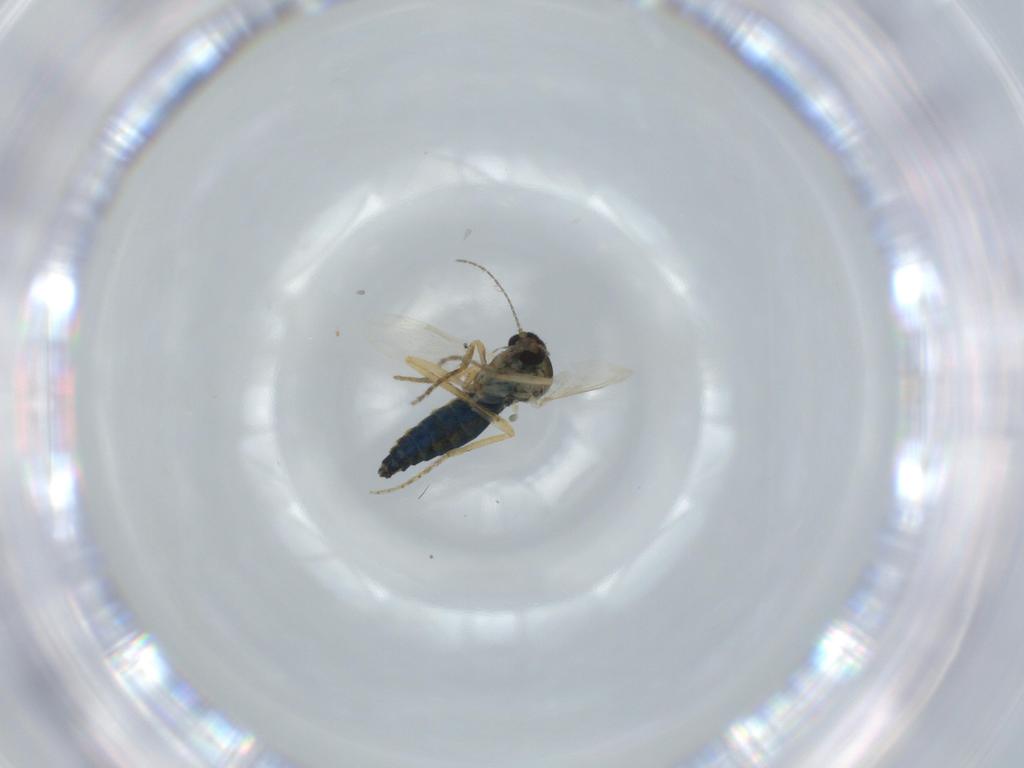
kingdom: Animalia
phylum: Arthropoda
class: Insecta
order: Diptera
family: Ceratopogonidae
